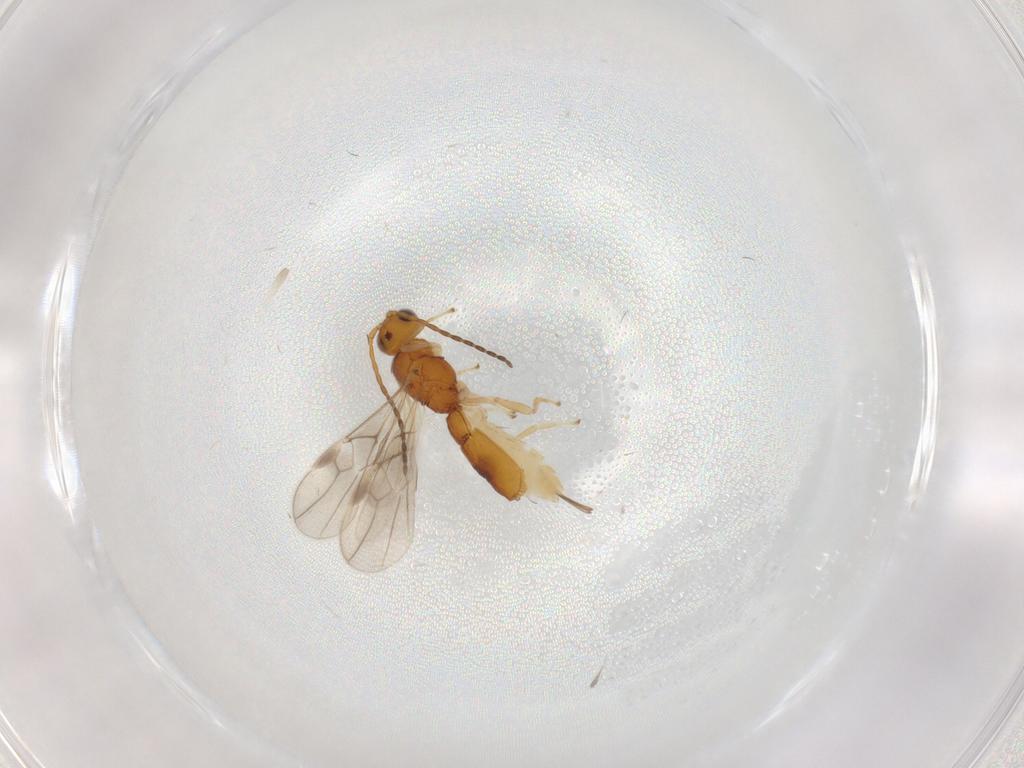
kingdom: Animalia
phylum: Arthropoda
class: Insecta
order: Hymenoptera
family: Braconidae
